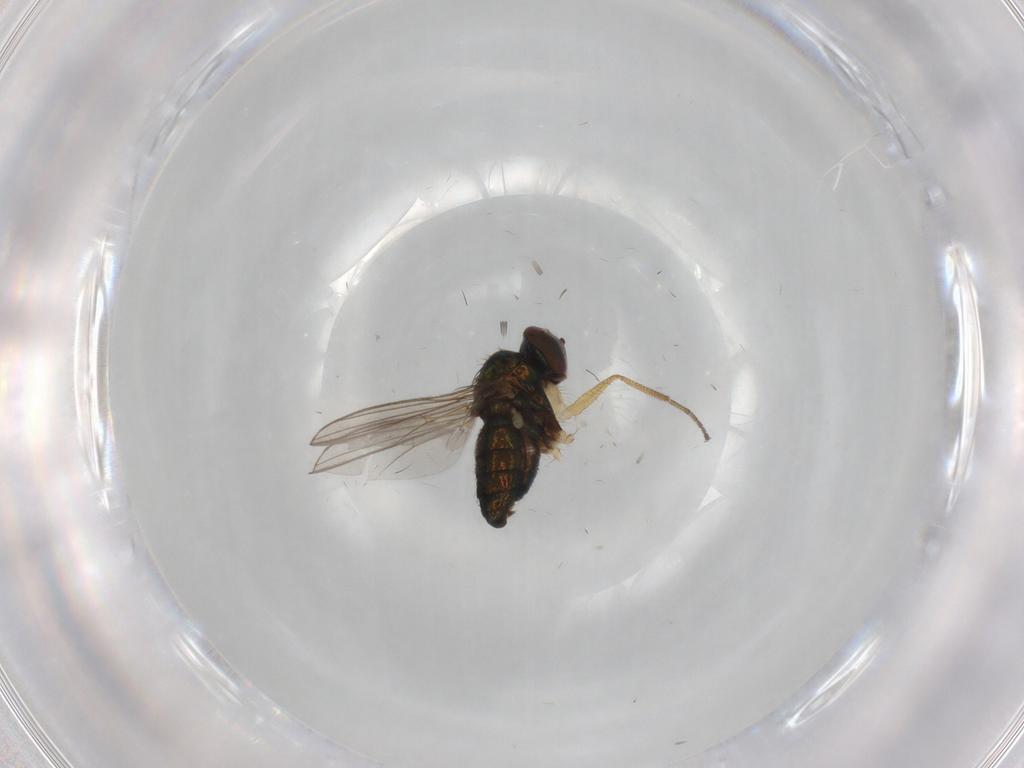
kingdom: Animalia
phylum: Arthropoda
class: Insecta
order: Diptera
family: Dolichopodidae
